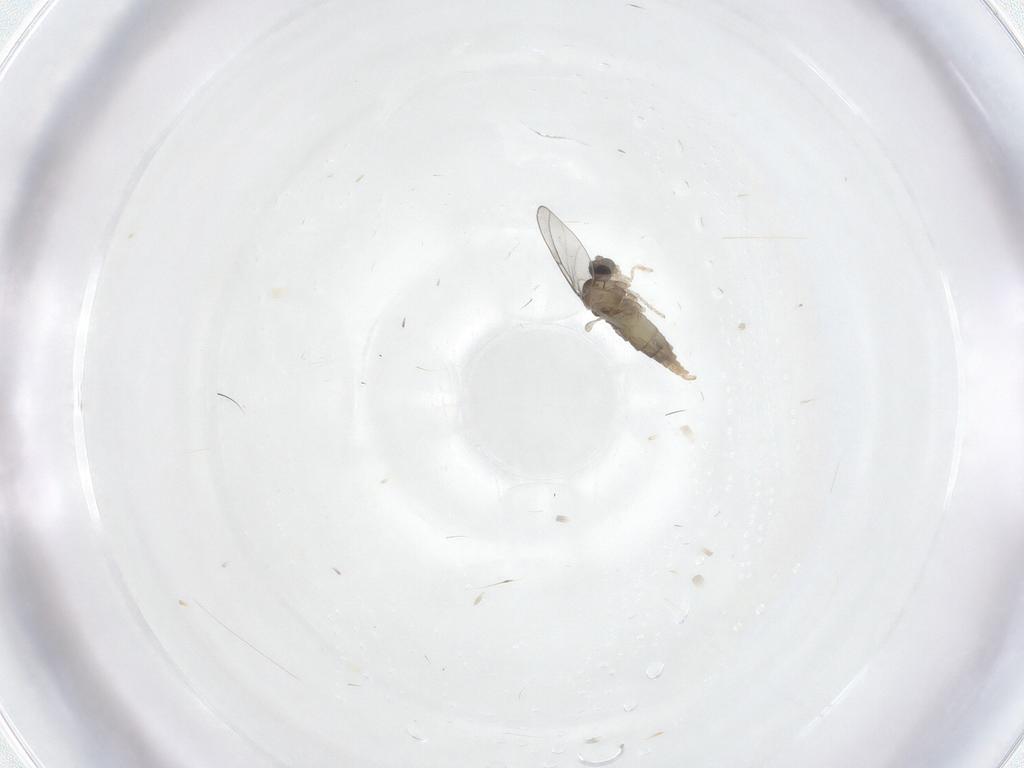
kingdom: Animalia
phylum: Arthropoda
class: Insecta
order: Diptera
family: Cecidomyiidae
